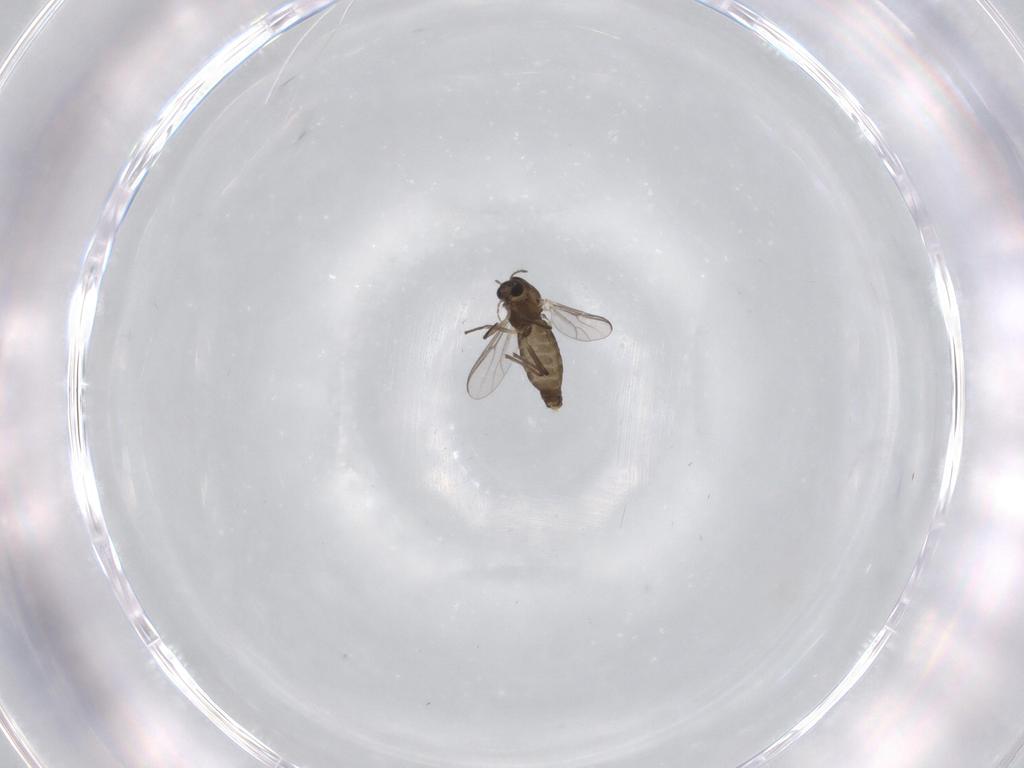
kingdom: Animalia
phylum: Arthropoda
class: Insecta
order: Diptera
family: Chironomidae
